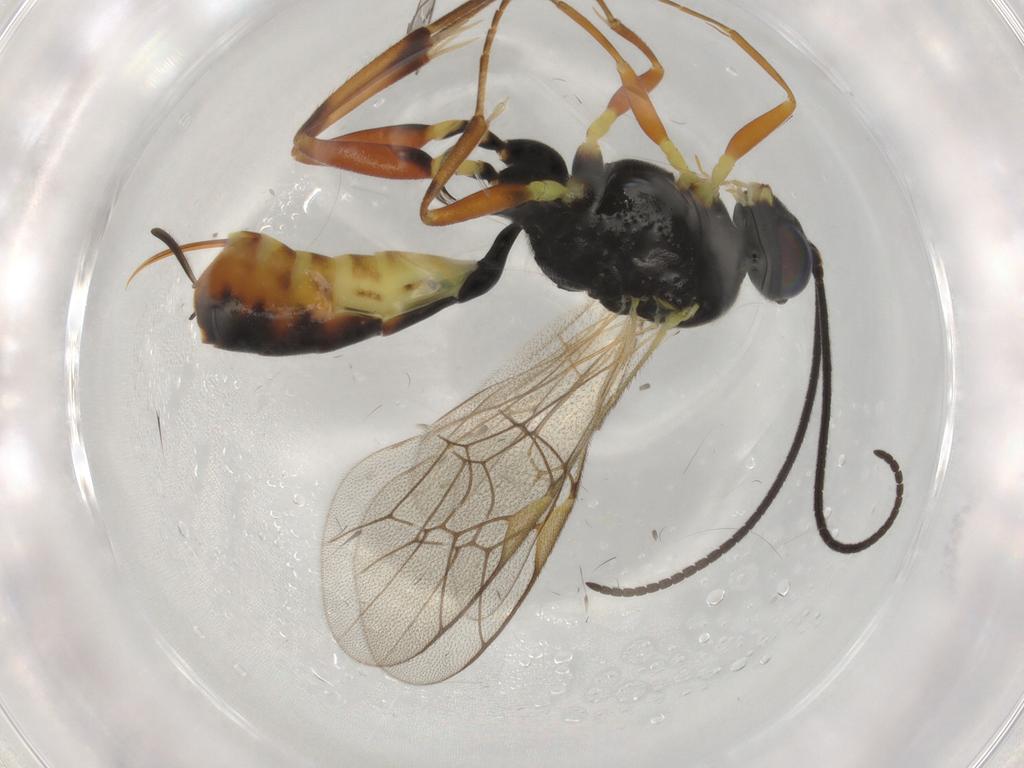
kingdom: Animalia
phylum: Arthropoda
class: Insecta
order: Hymenoptera
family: Ichneumonidae
